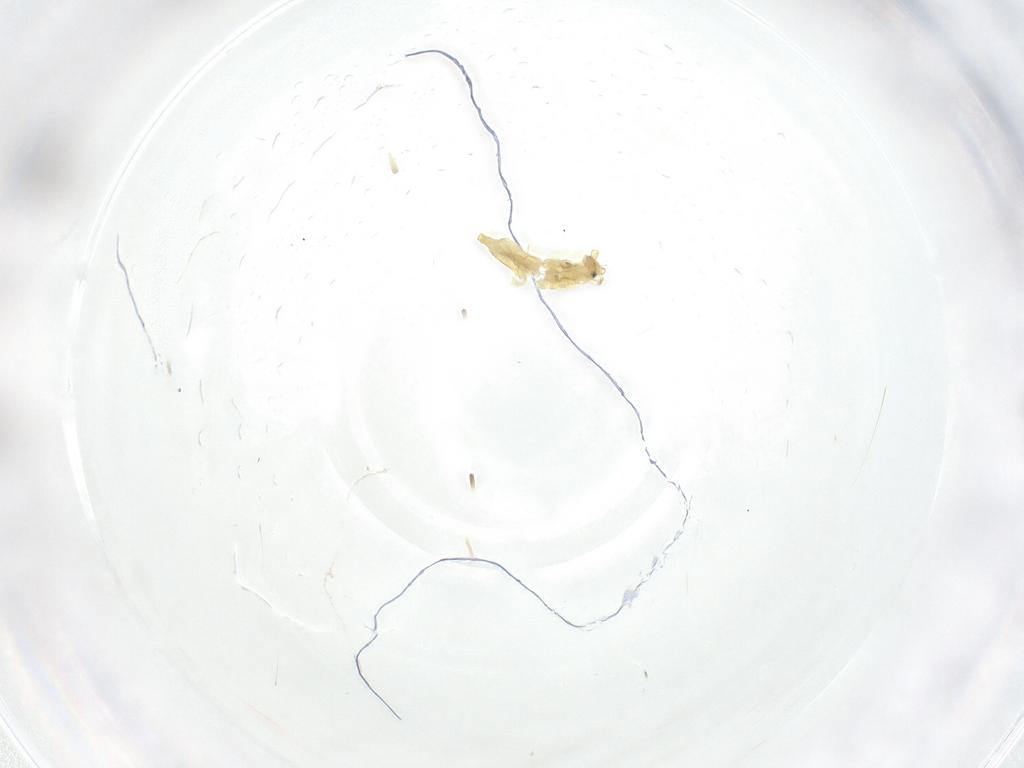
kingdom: Animalia
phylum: Arthropoda
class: Collembola
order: Entomobryomorpha
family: Entomobryidae
